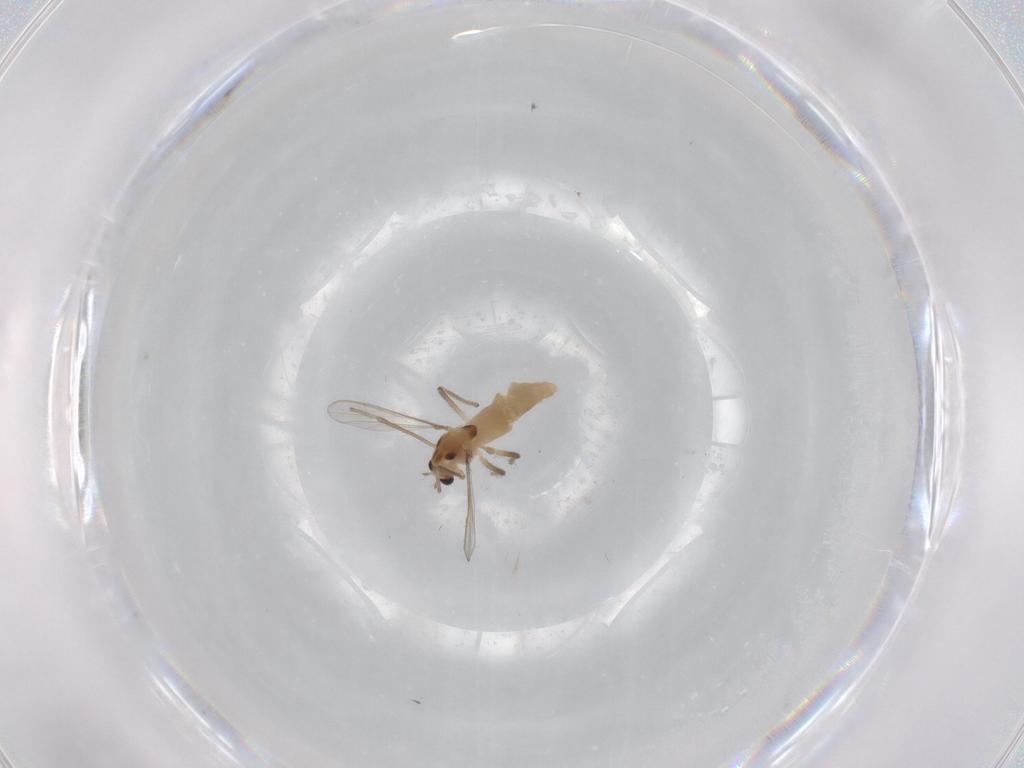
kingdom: Animalia
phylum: Arthropoda
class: Insecta
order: Diptera
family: Chironomidae
